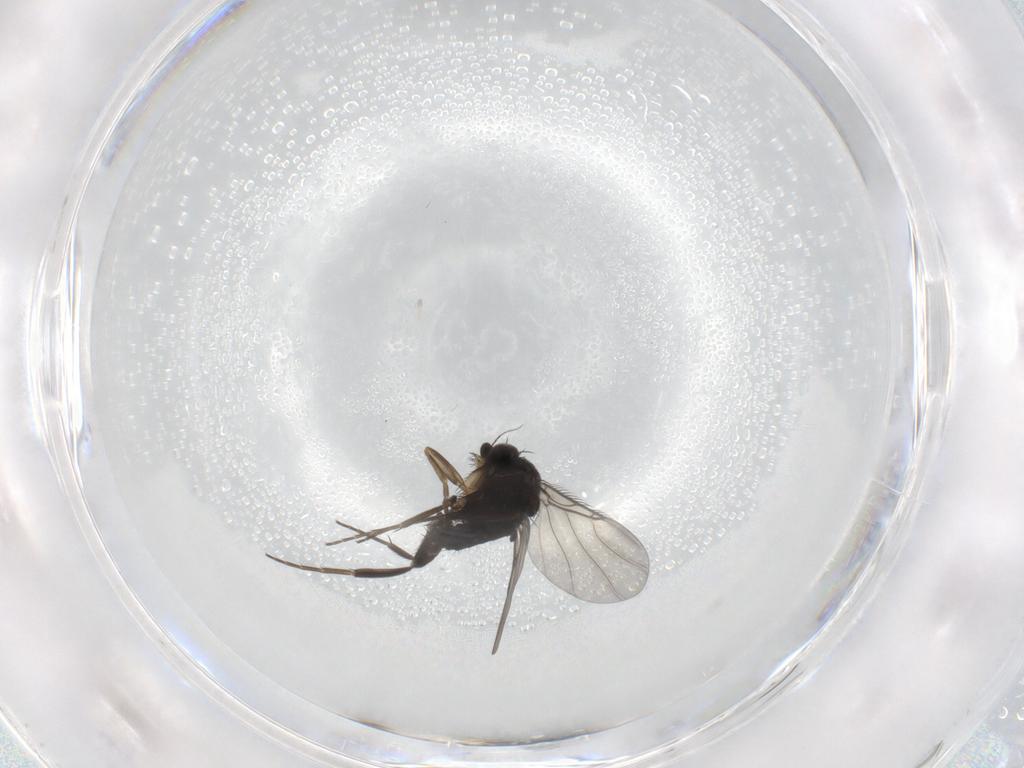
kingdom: Animalia
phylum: Arthropoda
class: Insecta
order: Diptera
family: Phoridae
